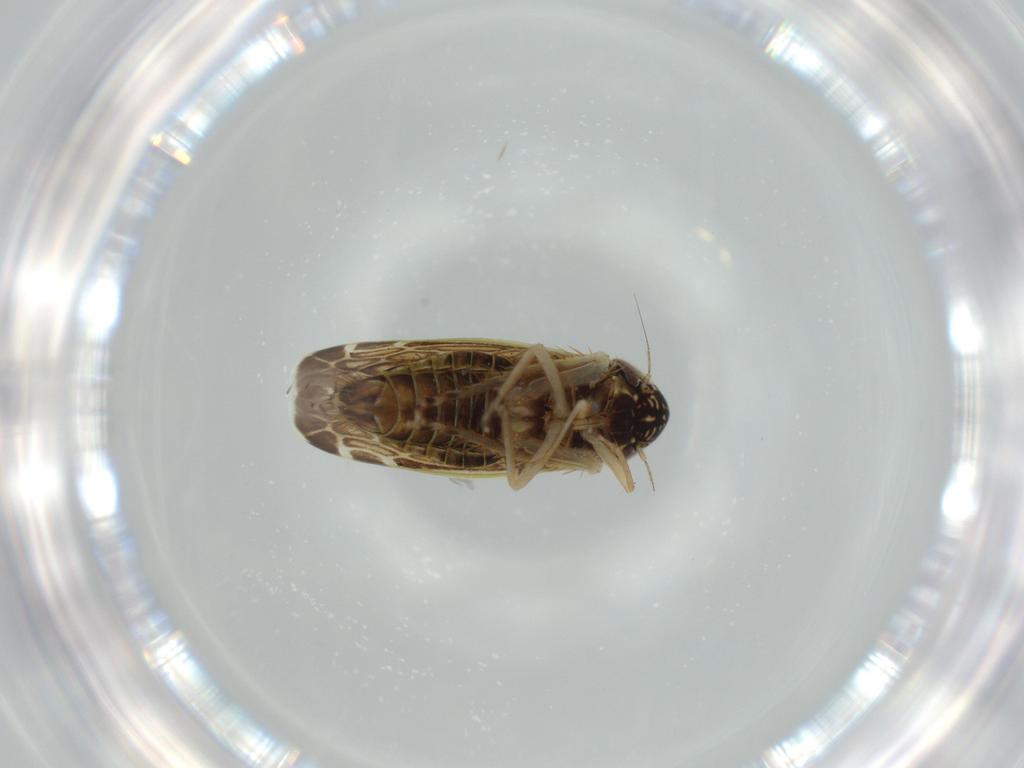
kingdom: Animalia
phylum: Arthropoda
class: Insecta
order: Hemiptera
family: Cicadellidae
